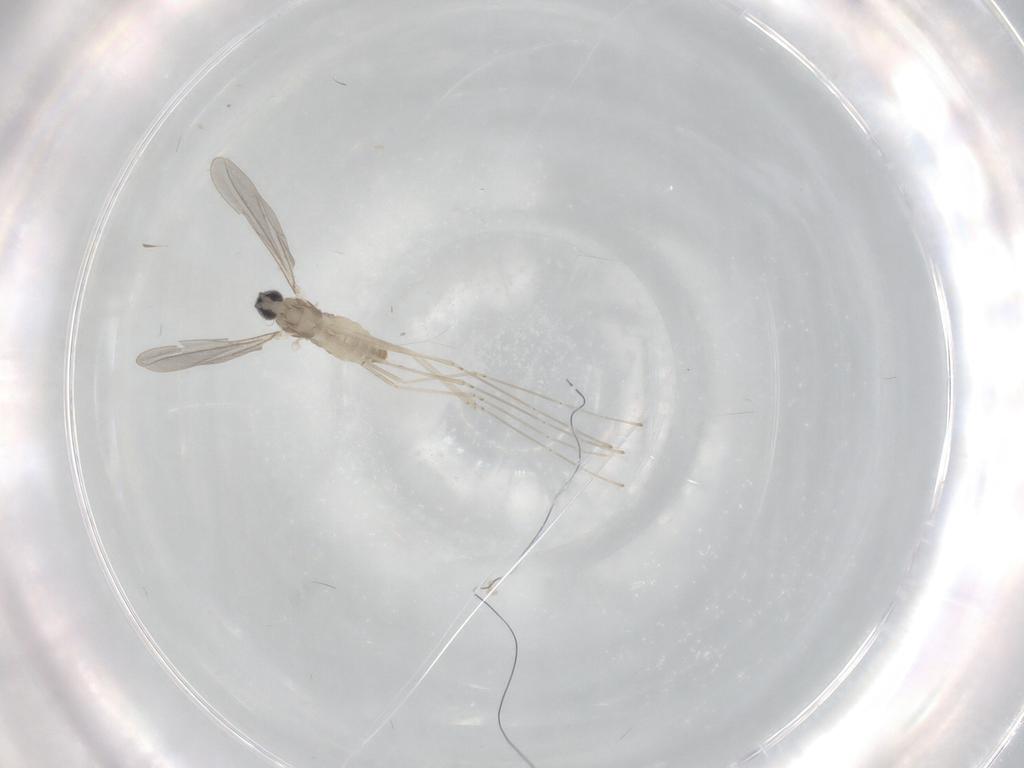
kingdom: Animalia
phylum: Arthropoda
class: Insecta
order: Diptera
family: Cecidomyiidae
